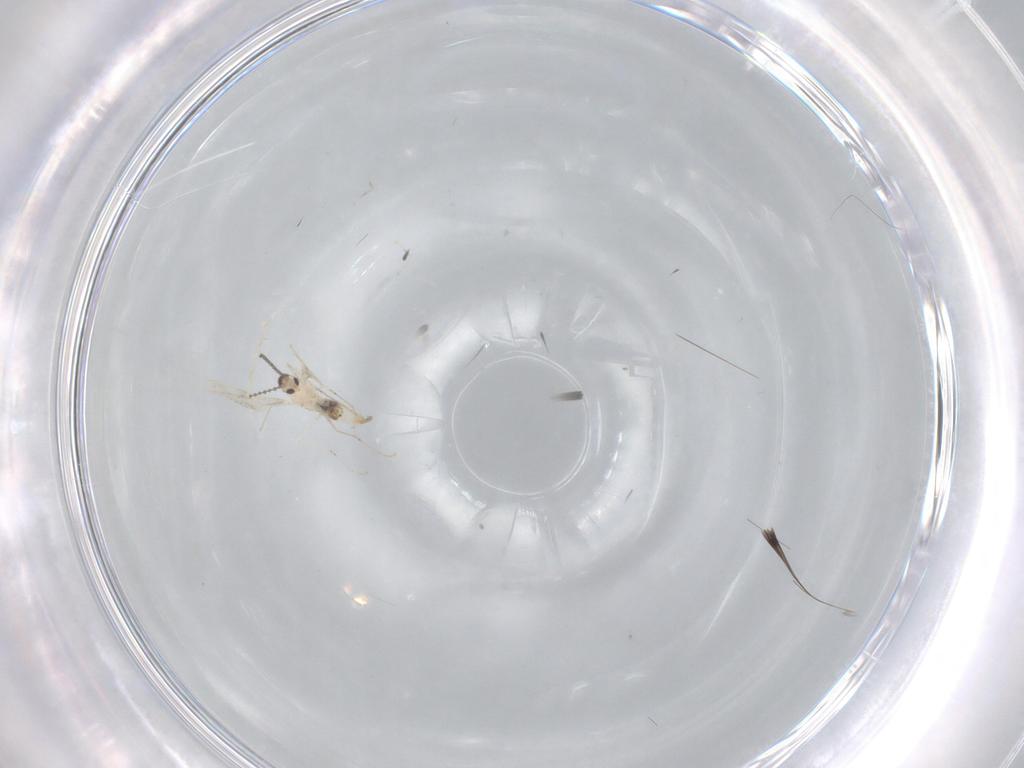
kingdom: Animalia
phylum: Arthropoda
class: Insecta
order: Diptera
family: Cecidomyiidae
